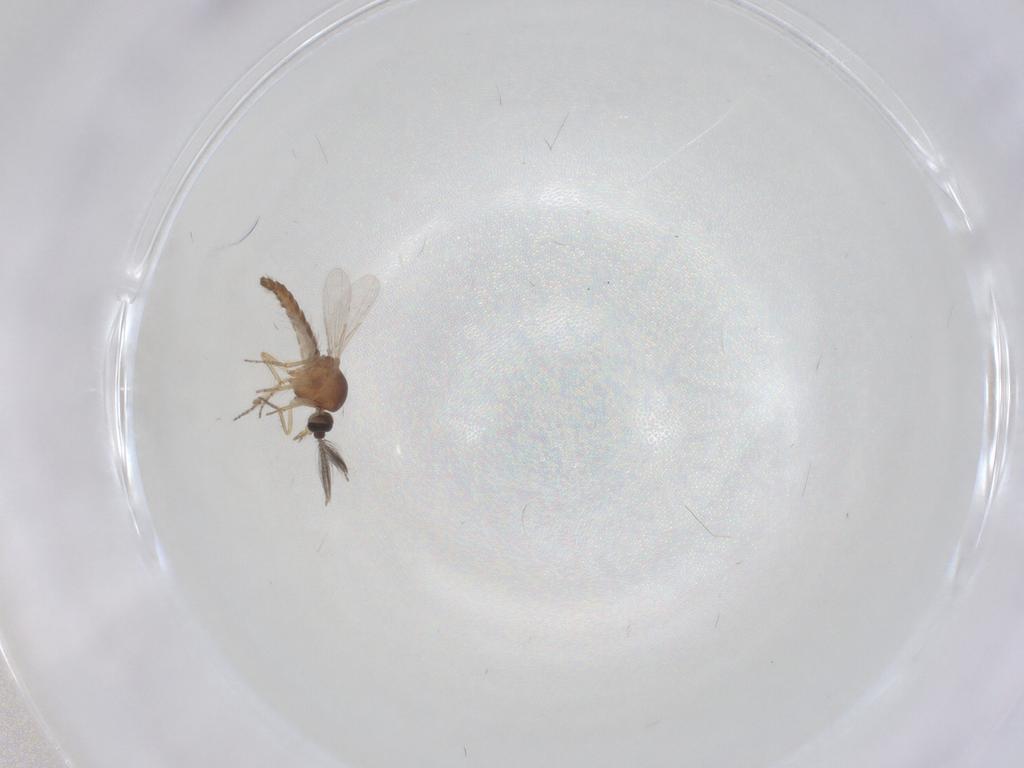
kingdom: Animalia
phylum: Arthropoda
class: Insecta
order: Diptera
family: Ceratopogonidae
